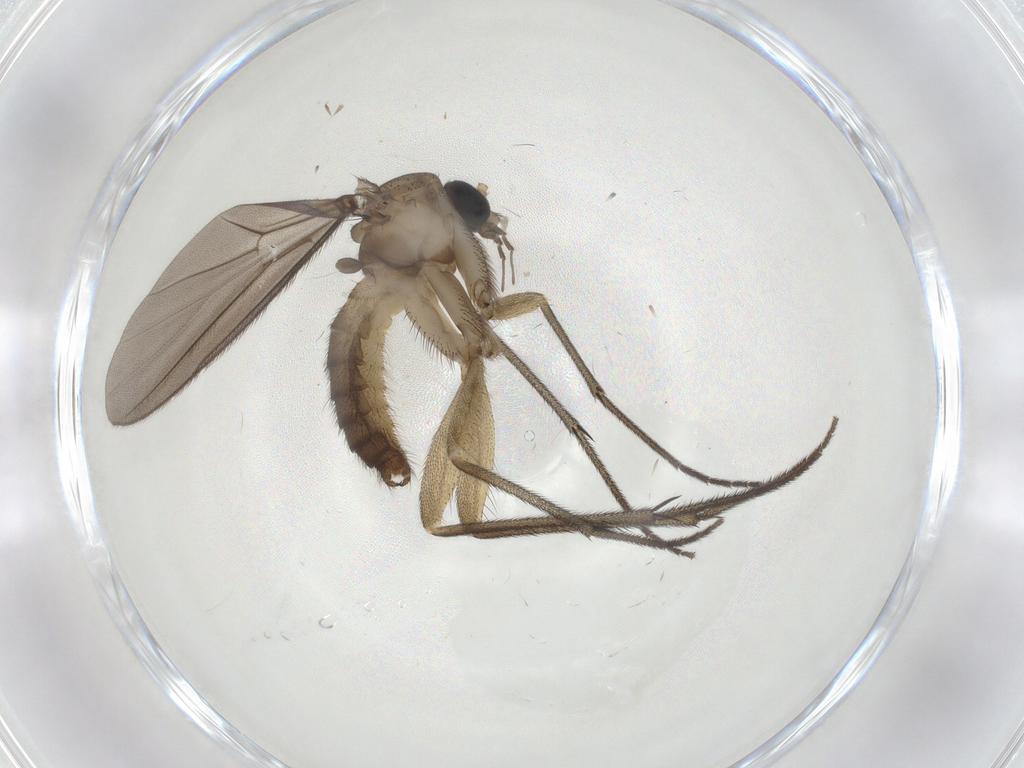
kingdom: Animalia
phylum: Arthropoda
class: Insecta
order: Diptera
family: Diadocidiidae
